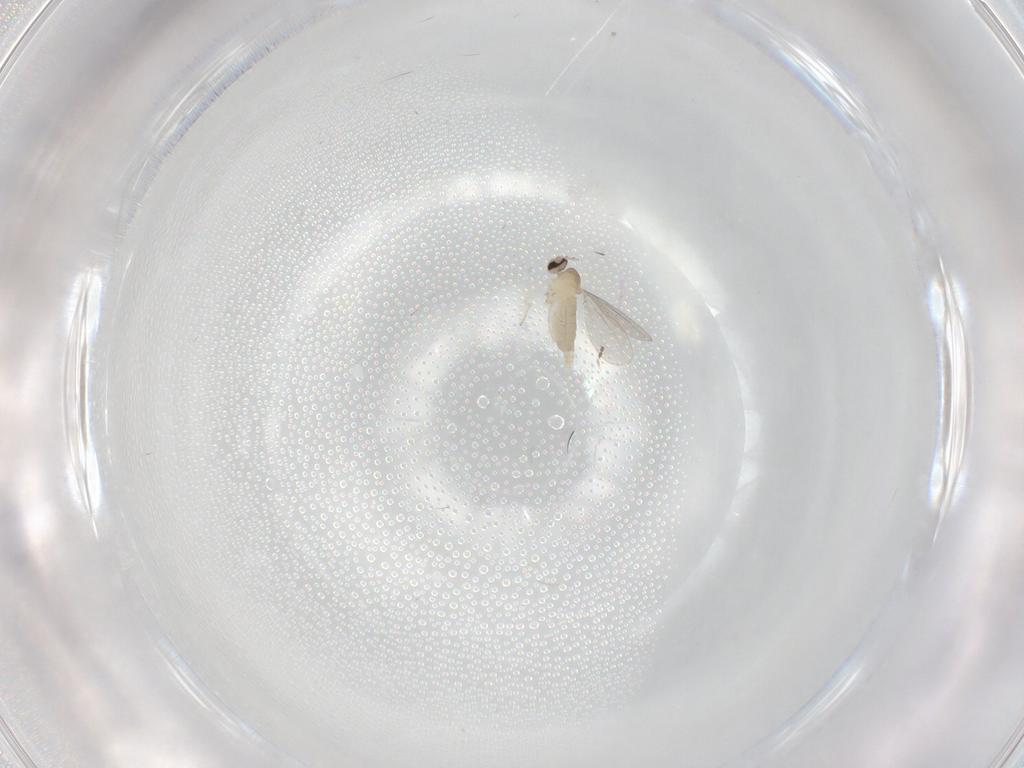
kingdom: Animalia
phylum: Arthropoda
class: Insecta
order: Diptera
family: Cecidomyiidae
